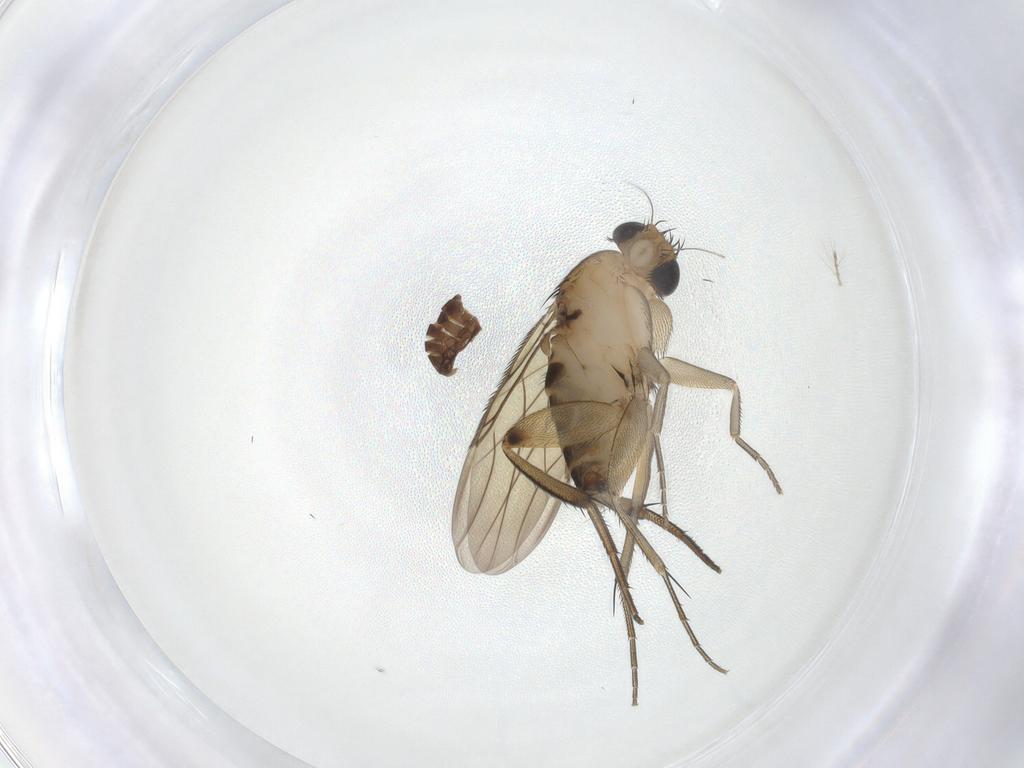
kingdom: Animalia
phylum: Arthropoda
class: Insecta
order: Diptera
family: Phoridae
